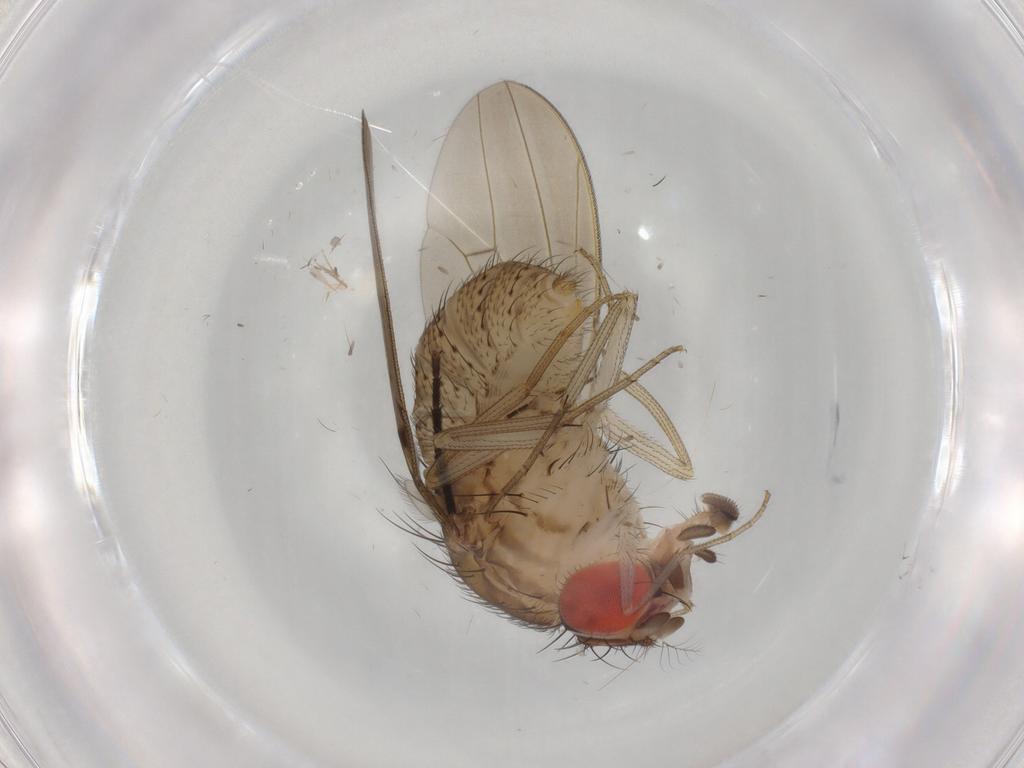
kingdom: Animalia
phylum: Arthropoda
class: Insecta
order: Diptera
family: Drosophilidae
